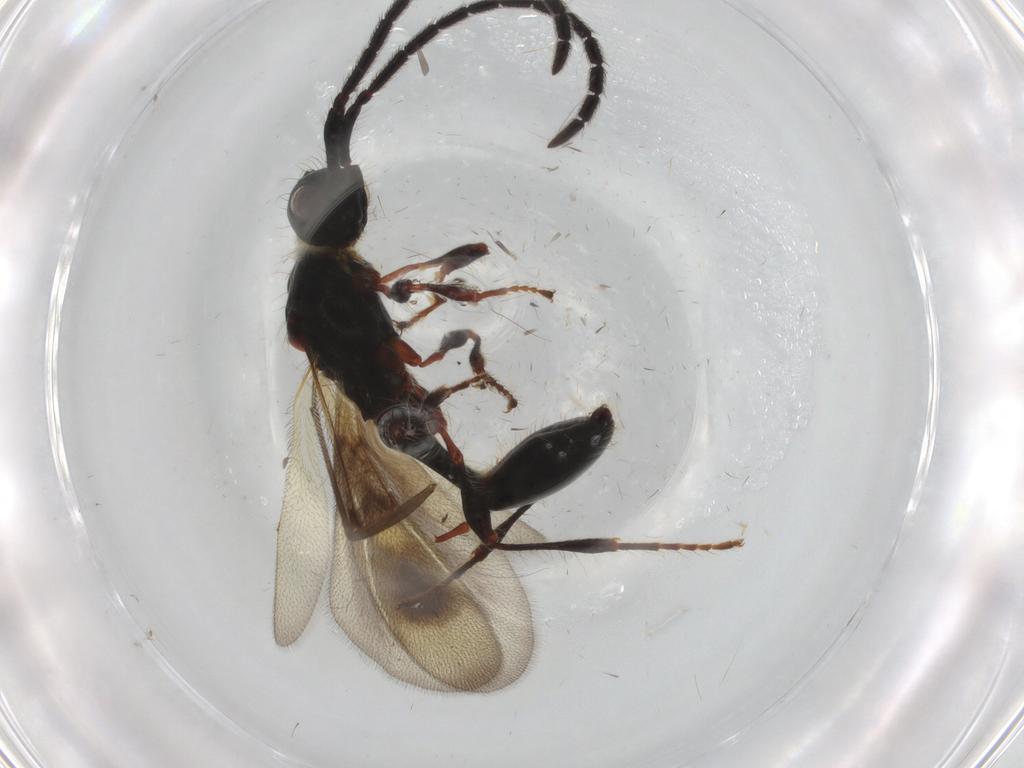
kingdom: Animalia
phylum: Arthropoda
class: Insecta
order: Hymenoptera
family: Diapriidae
